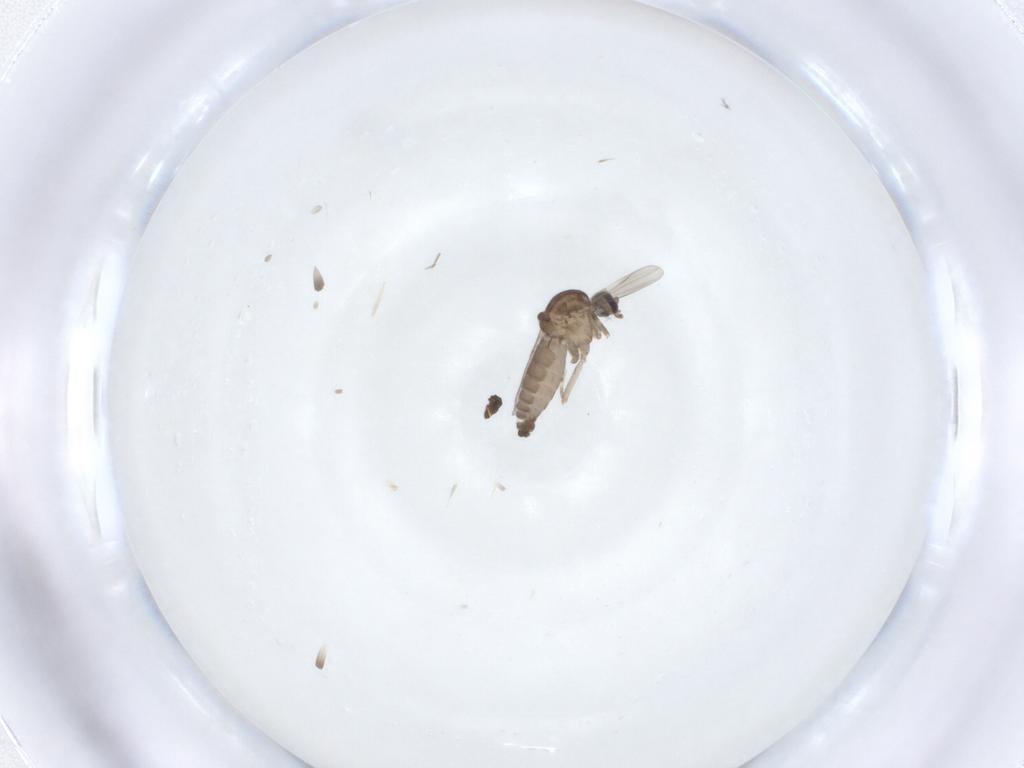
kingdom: Animalia
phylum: Arthropoda
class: Insecta
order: Diptera
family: Ceratopogonidae
